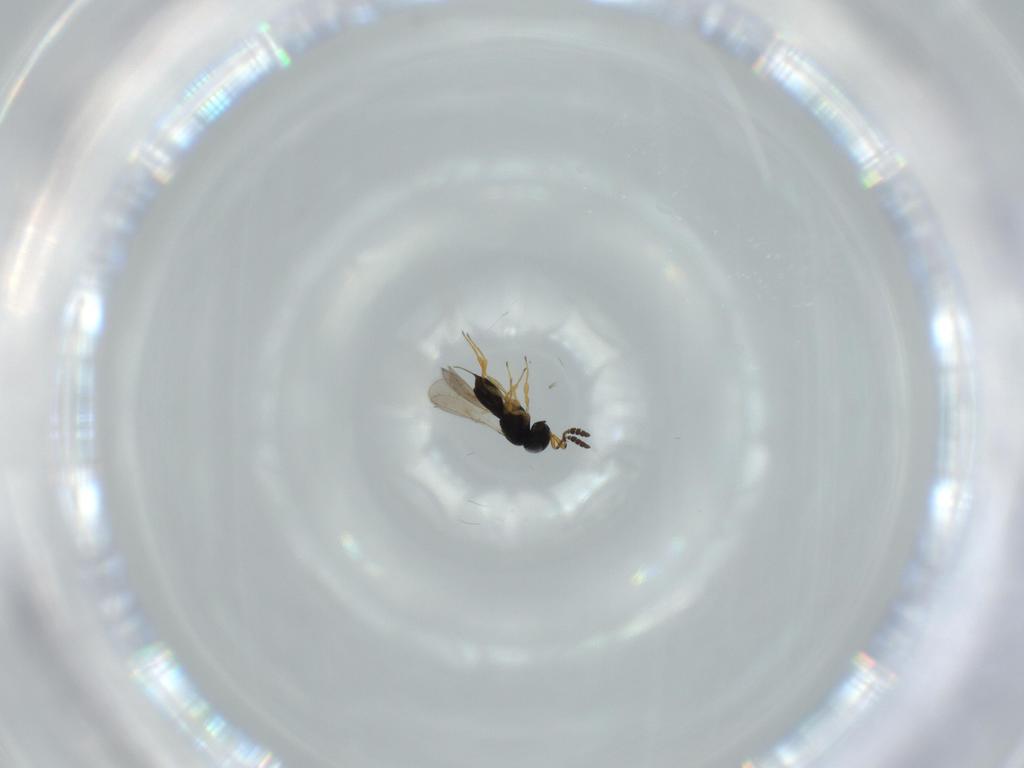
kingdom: Animalia
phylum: Arthropoda
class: Insecta
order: Hymenoptera
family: Scelionidae
